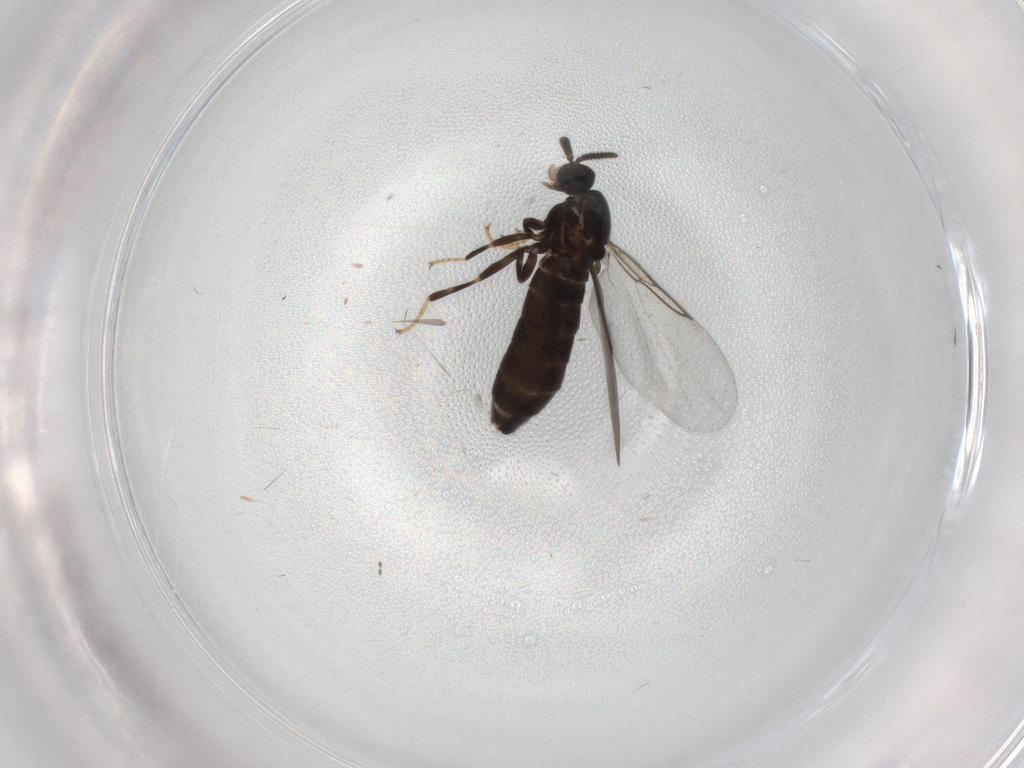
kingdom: Animalia
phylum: Arthropoda
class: Insecta
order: Diptera
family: Scatopsidae
